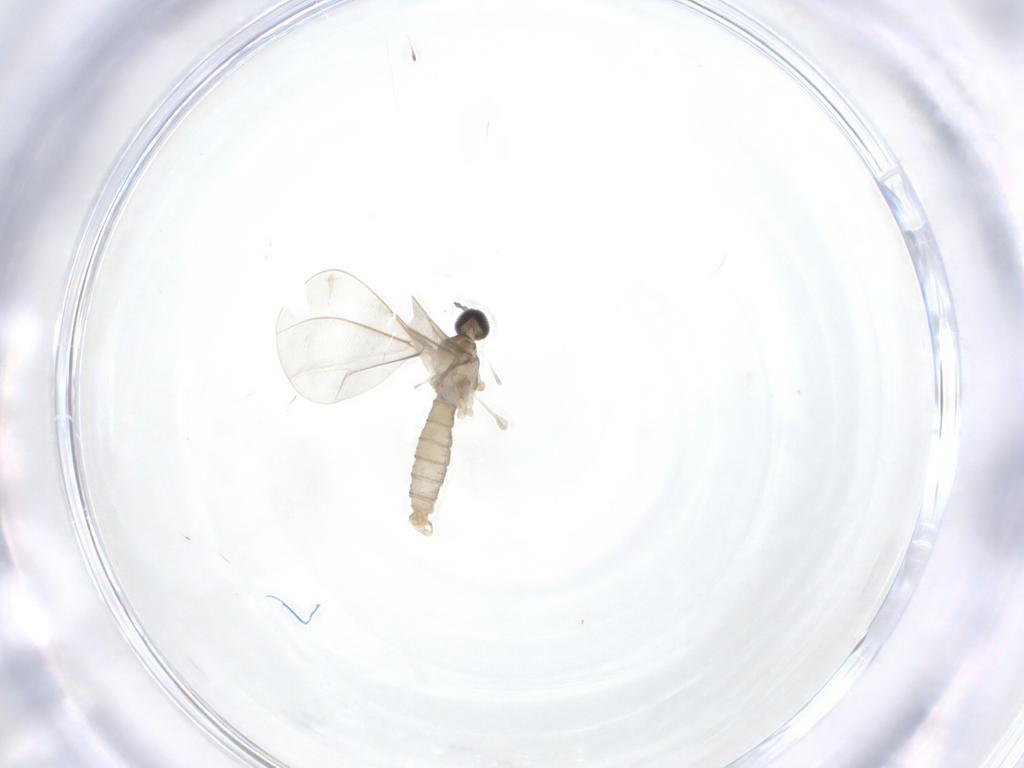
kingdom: Animalia
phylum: Arthropoda
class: Insecta
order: Diptera
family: Cecidomyiidae
